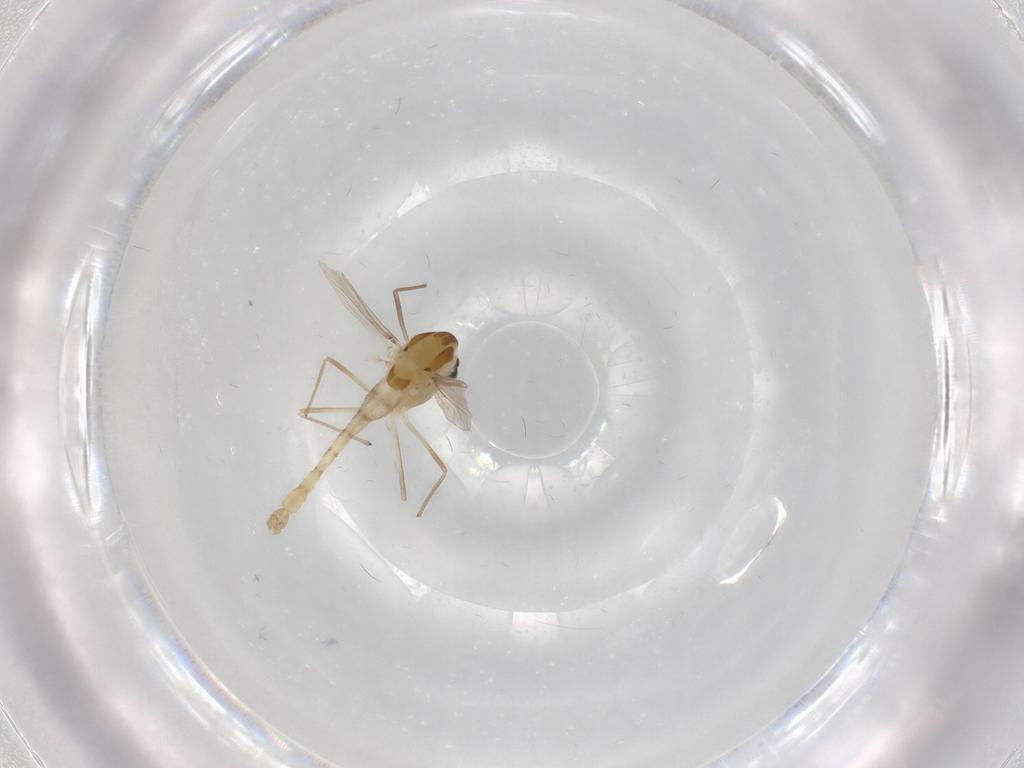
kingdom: Animalia
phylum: Arthropoda
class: Insecta
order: Diptera
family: Chironomidae
